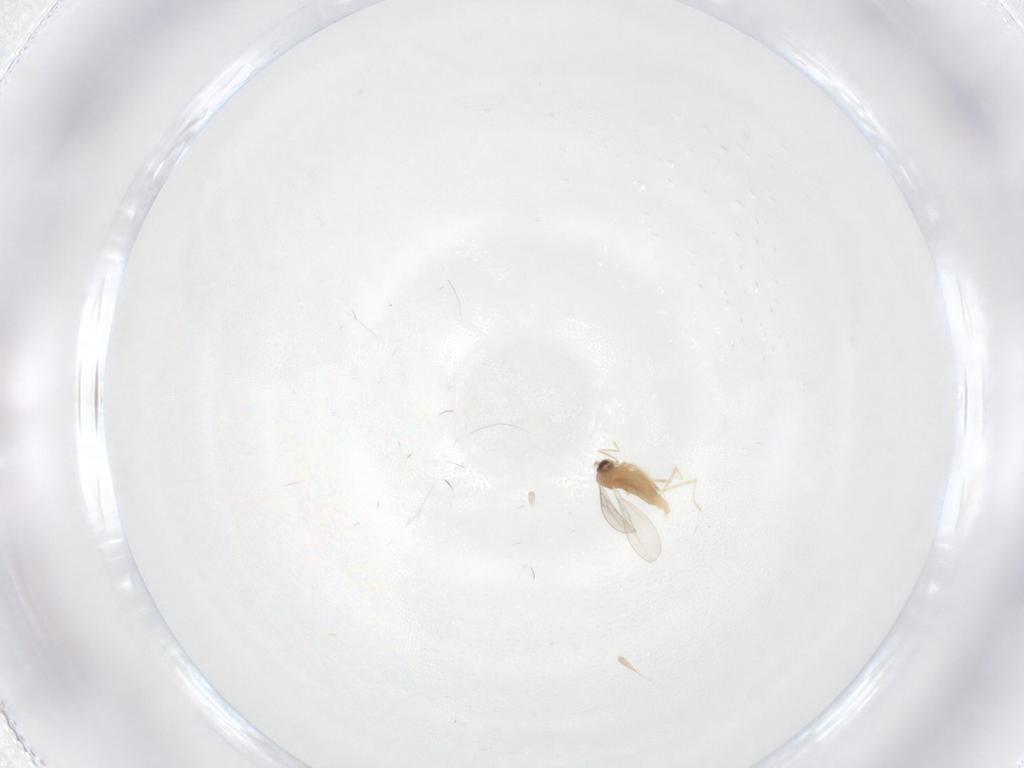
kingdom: Animalia
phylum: Arthropoda
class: Insecta
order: Diptera
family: Cecidomyiidae
